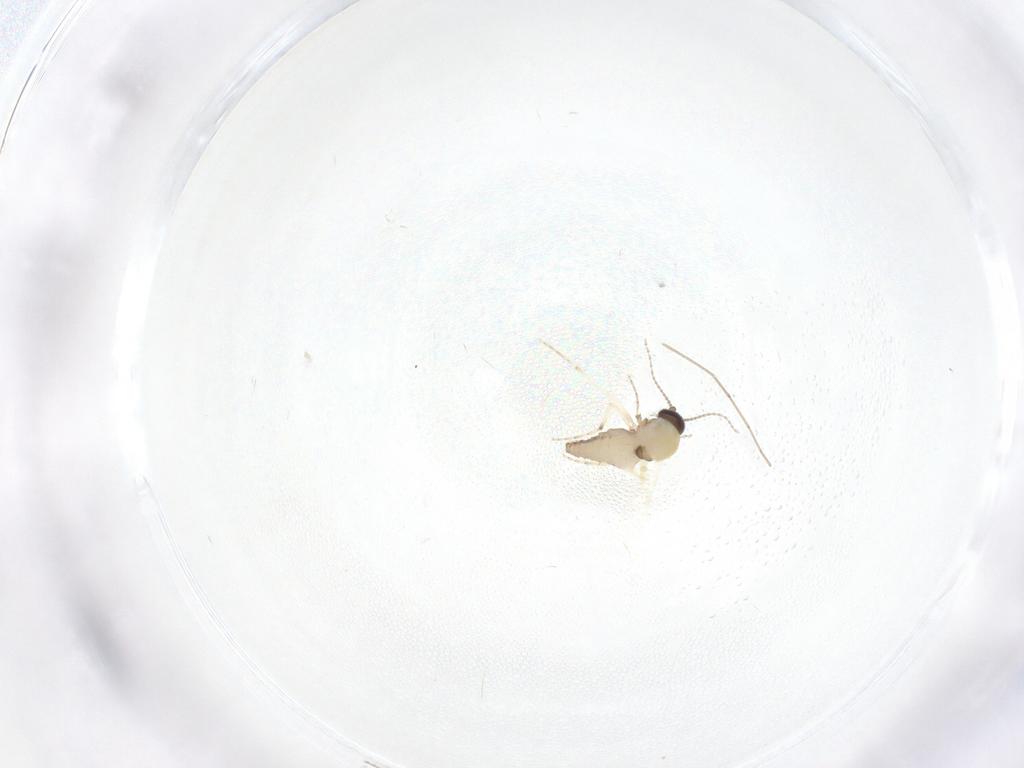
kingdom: Animalia
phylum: Arthropoda
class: Insecta
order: Diptera
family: Ceratopogonidae
